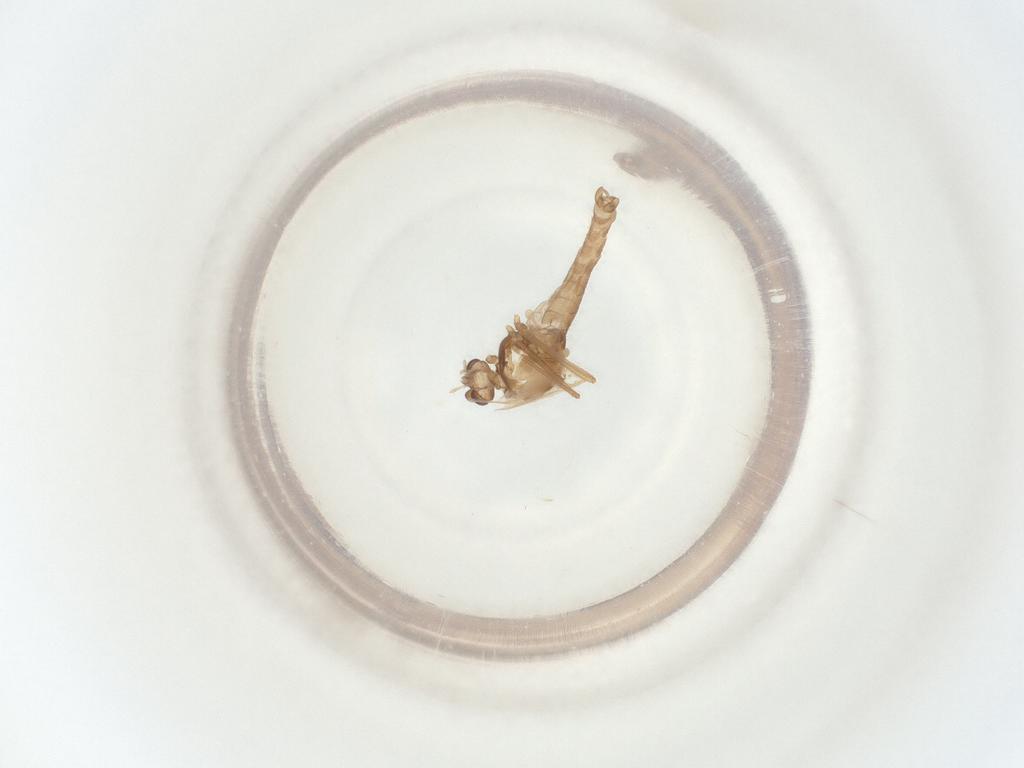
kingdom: Animalia
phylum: Arthropoda
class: Insecta
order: Diptera
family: Chironomidae
